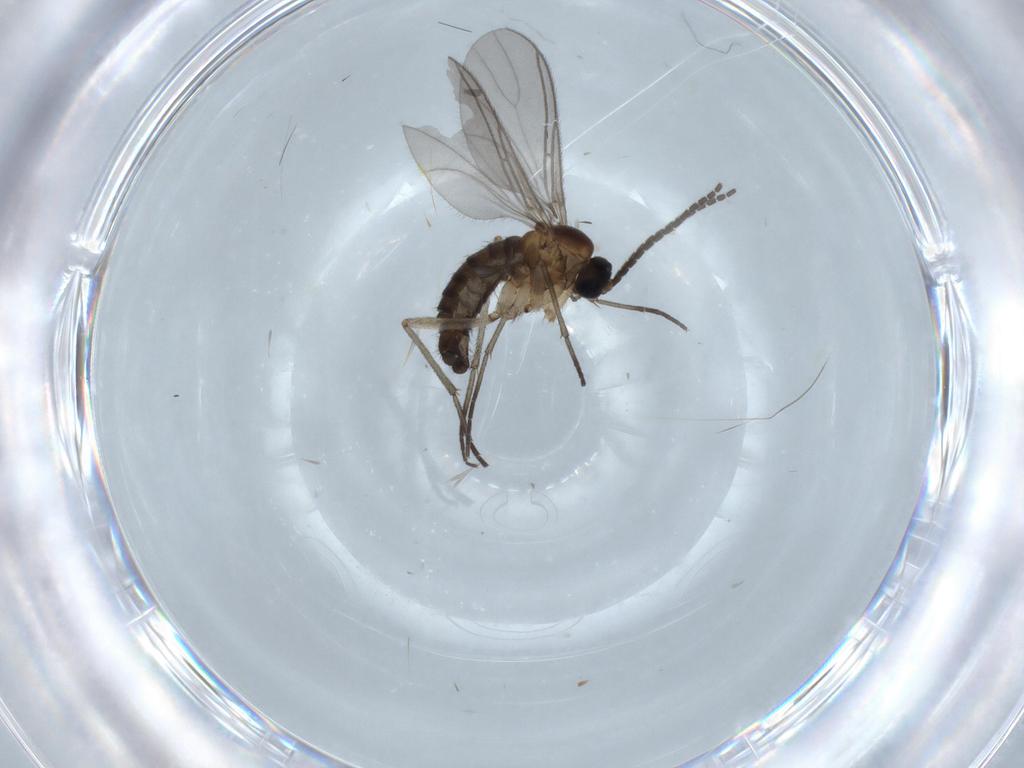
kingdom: Animalia
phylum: Arthropoda
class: Insecta
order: Diptera
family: Sciaridae
